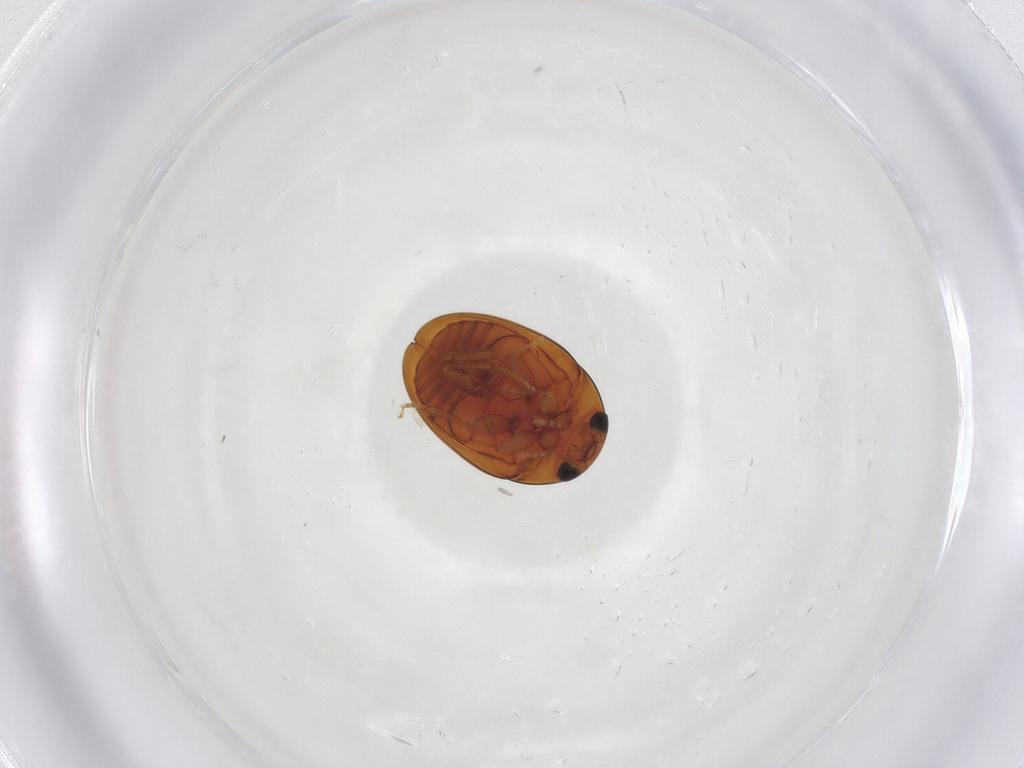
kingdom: Animalia
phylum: Arthropoda
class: Insecta
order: Coleoptera
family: Phalacridae
